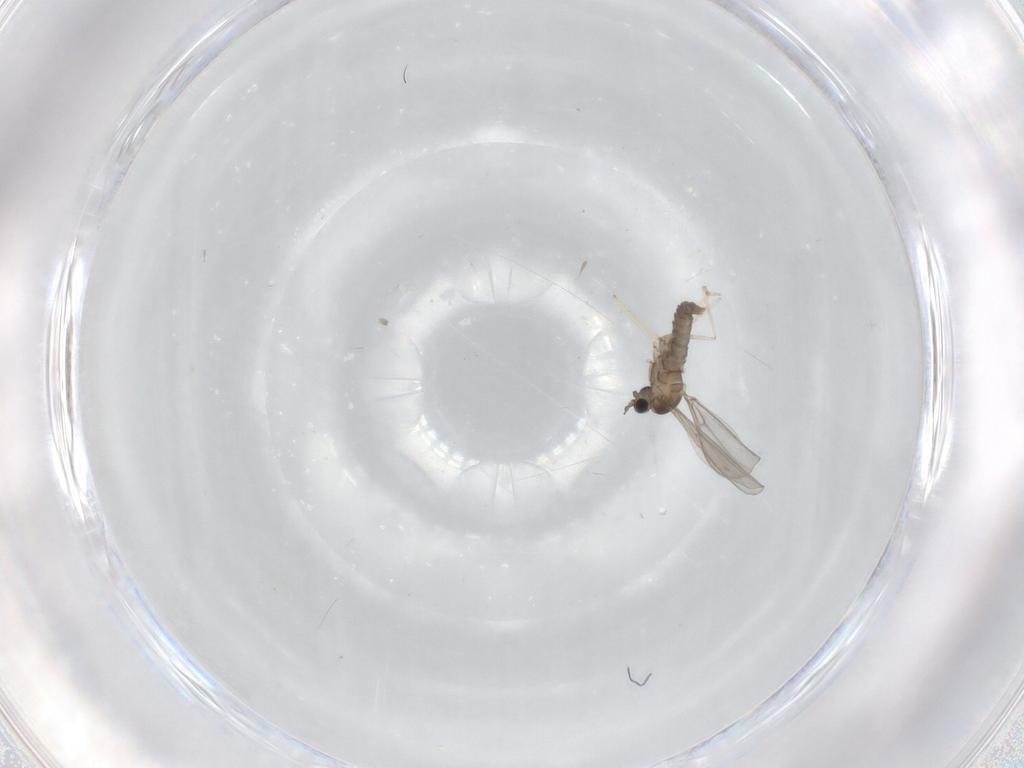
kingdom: Animalia
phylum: Arthropoda
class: Insecta
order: Diptera
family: Cecidomyiidae
